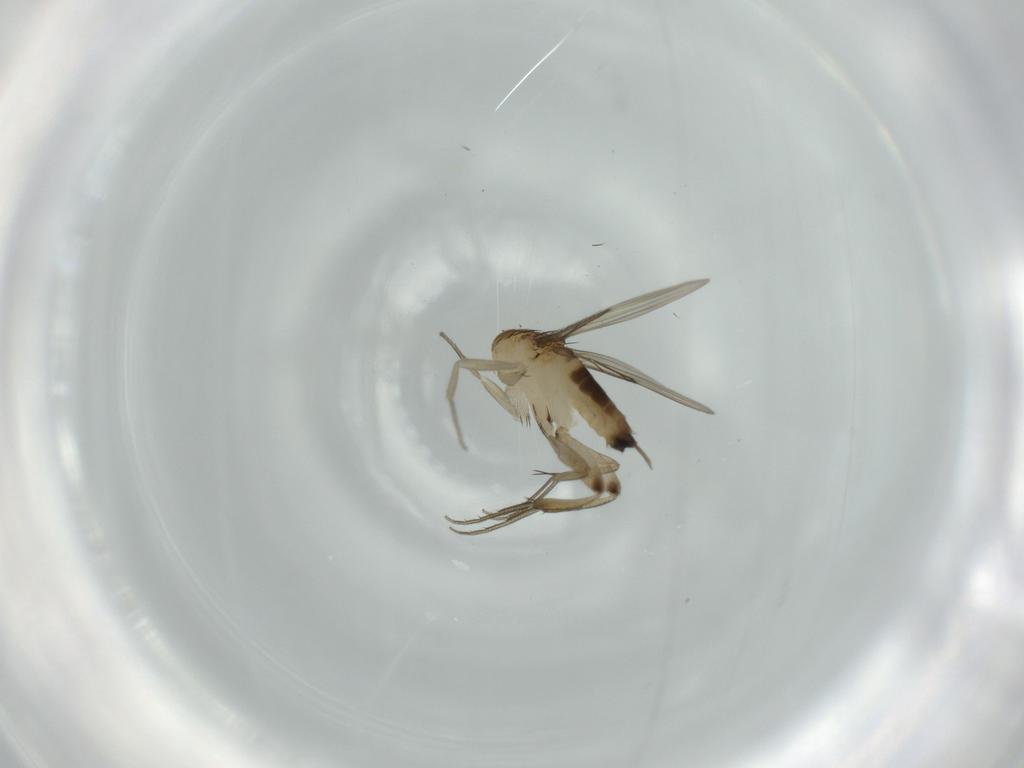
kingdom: Animalia
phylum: Arthropoda
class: Insecta
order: Diptera
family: Phoridae
